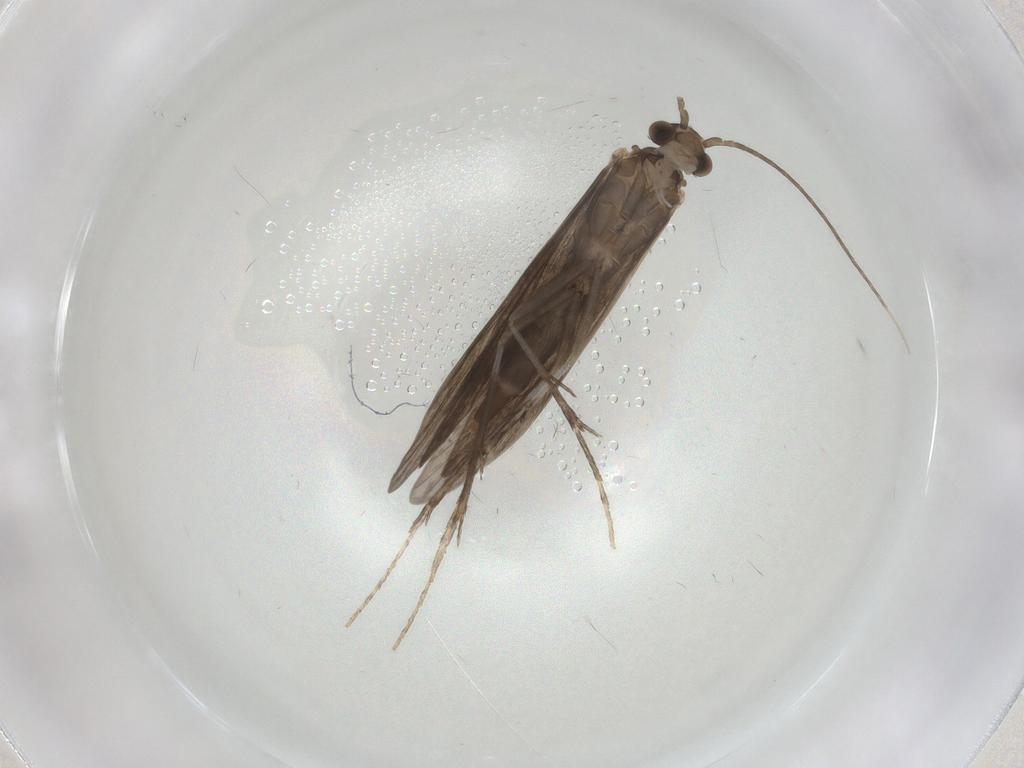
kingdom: Animalia
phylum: Arthropoda
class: Insecta
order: Trichoptera
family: Xiphocentronidae
